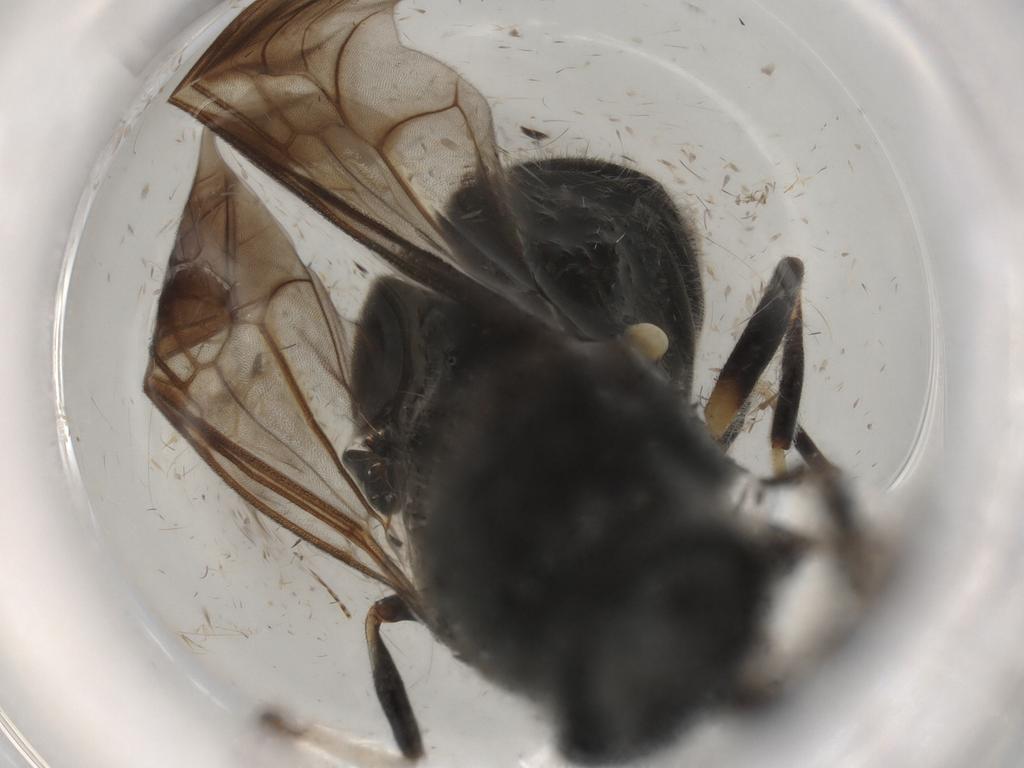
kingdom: Animalia
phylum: Arthropoda
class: Insecta
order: Diptera
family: Stratiomyidae
